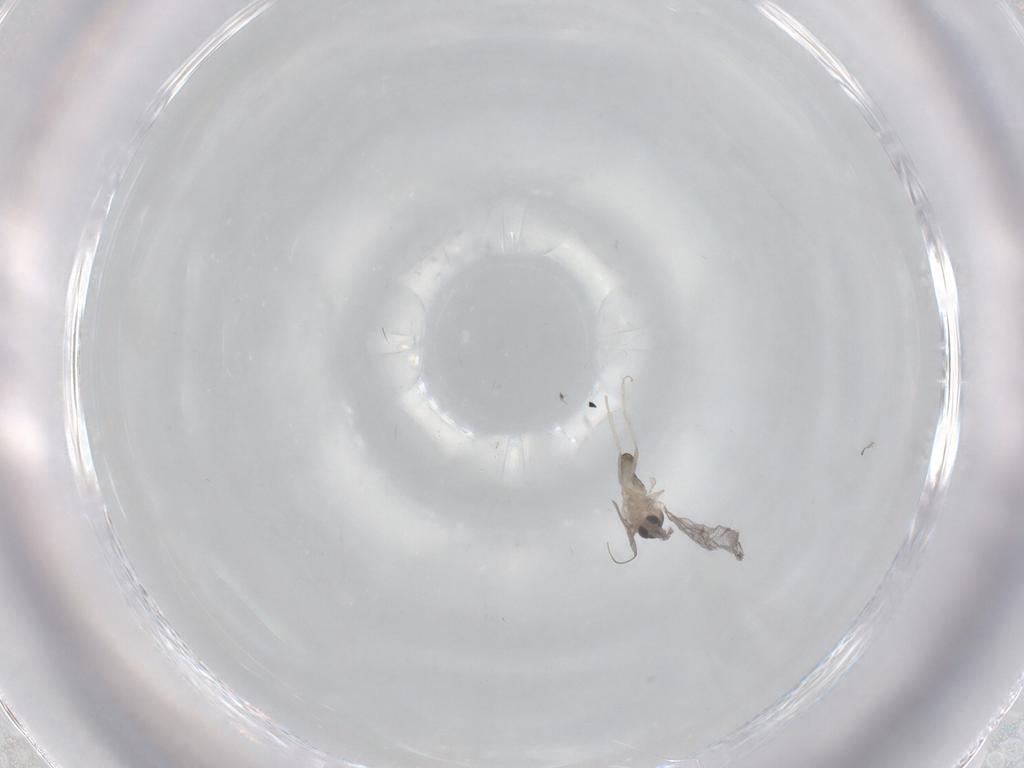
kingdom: Animalia
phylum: Arthropoda
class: Insecta
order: Diptera
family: Cecidomyiidae
